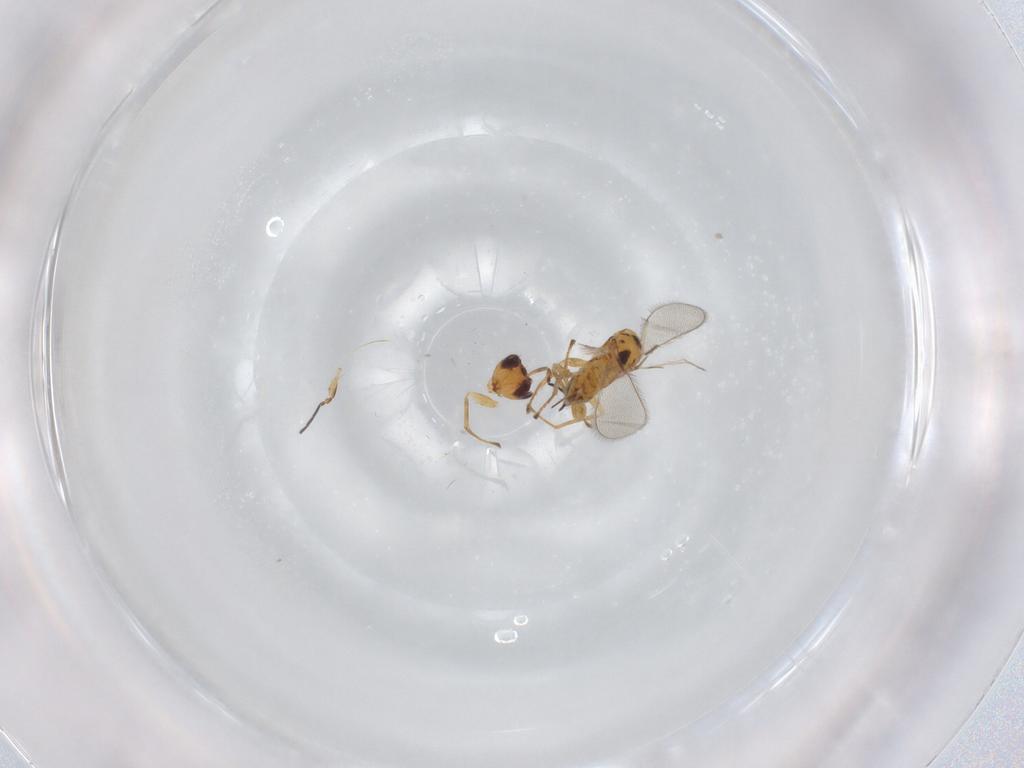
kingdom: Animalia
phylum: Arthropoda
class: Insecta
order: Hymenoptera
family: Mymaridae
